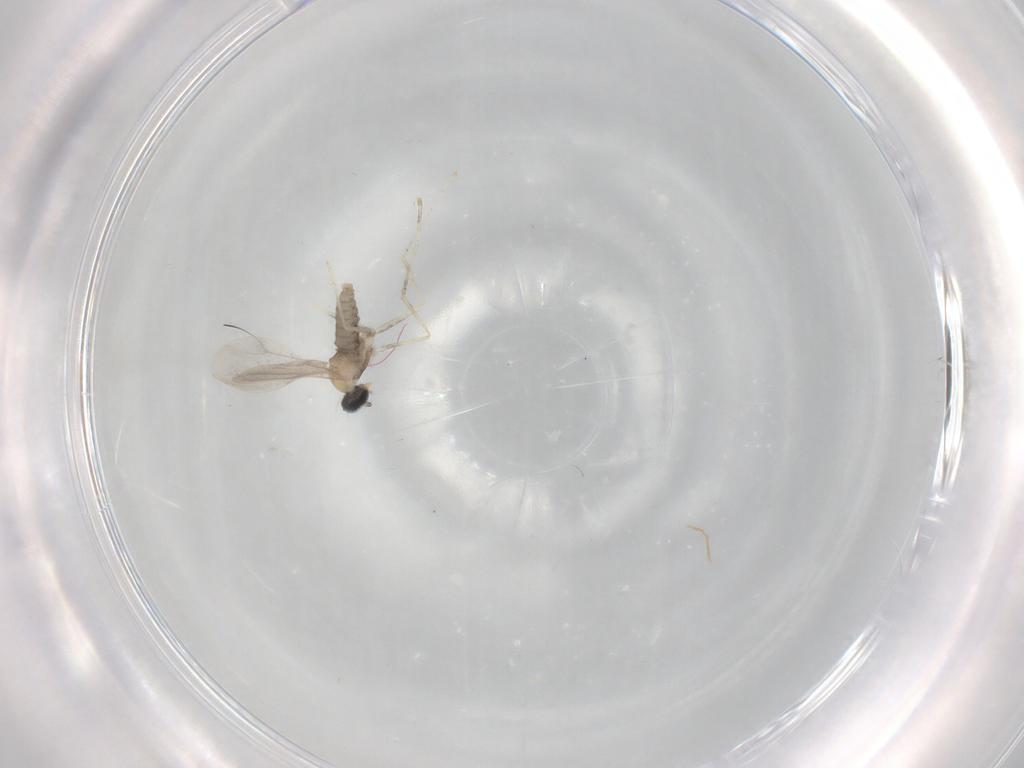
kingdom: Animalia
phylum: Arthropoda
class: Insecta
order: Diptera
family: Cecidomyiidae
